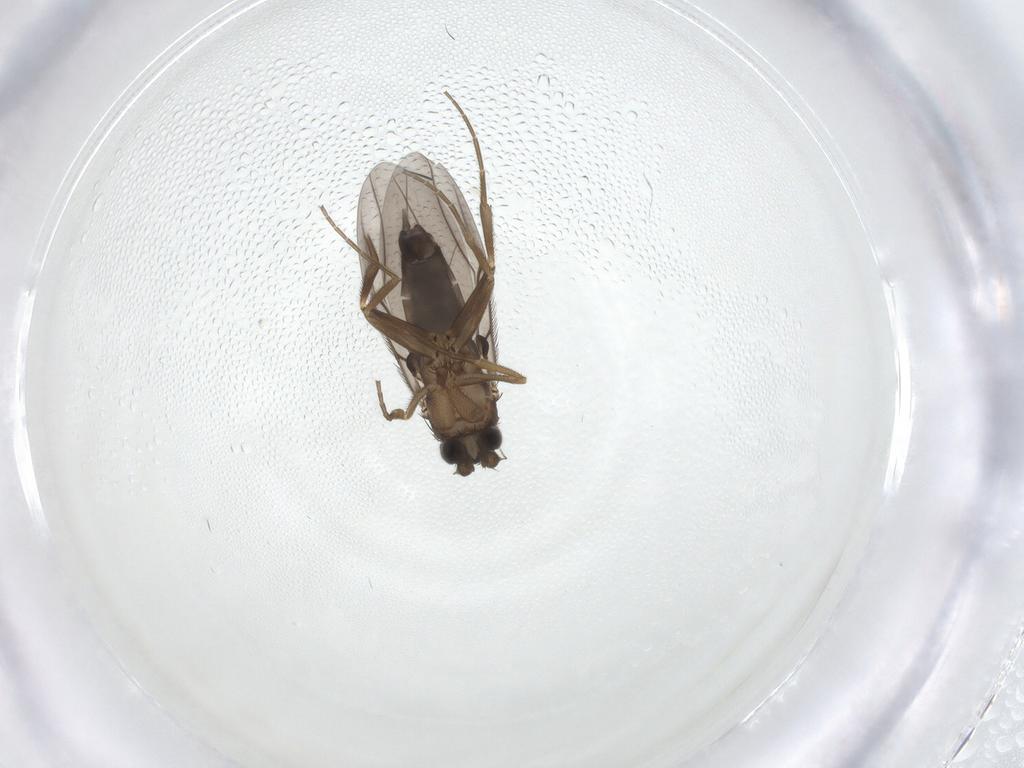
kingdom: Animalia
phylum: Arthropoda
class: Insecta
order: Diptera
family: Phoridae
